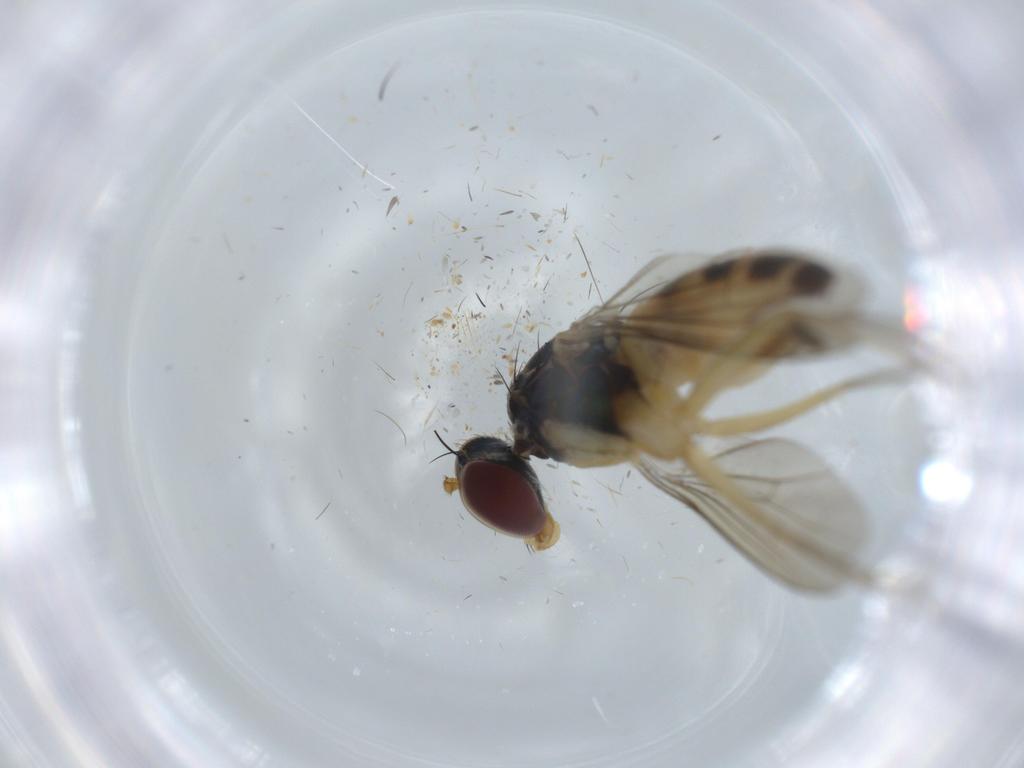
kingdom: Animalia
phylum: Arthropoda
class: Insecta
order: Diptera
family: Dolichopodidae
